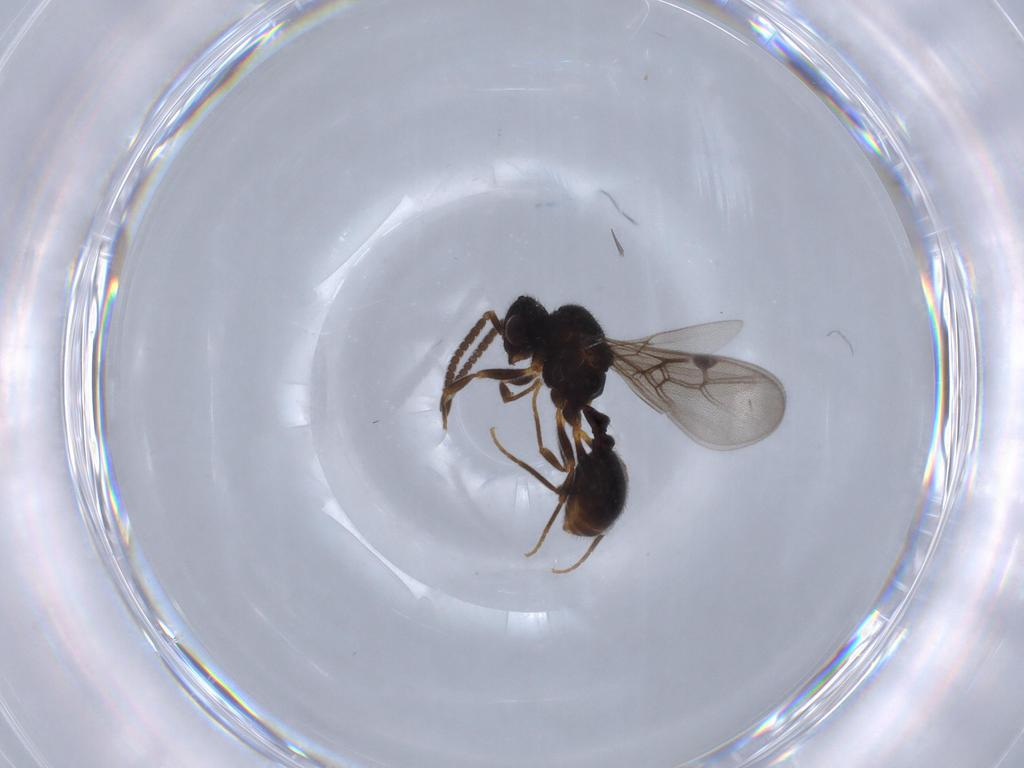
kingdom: Animalia
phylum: Arthropoda
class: Insecta
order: Hymenoptera
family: Formicidae
